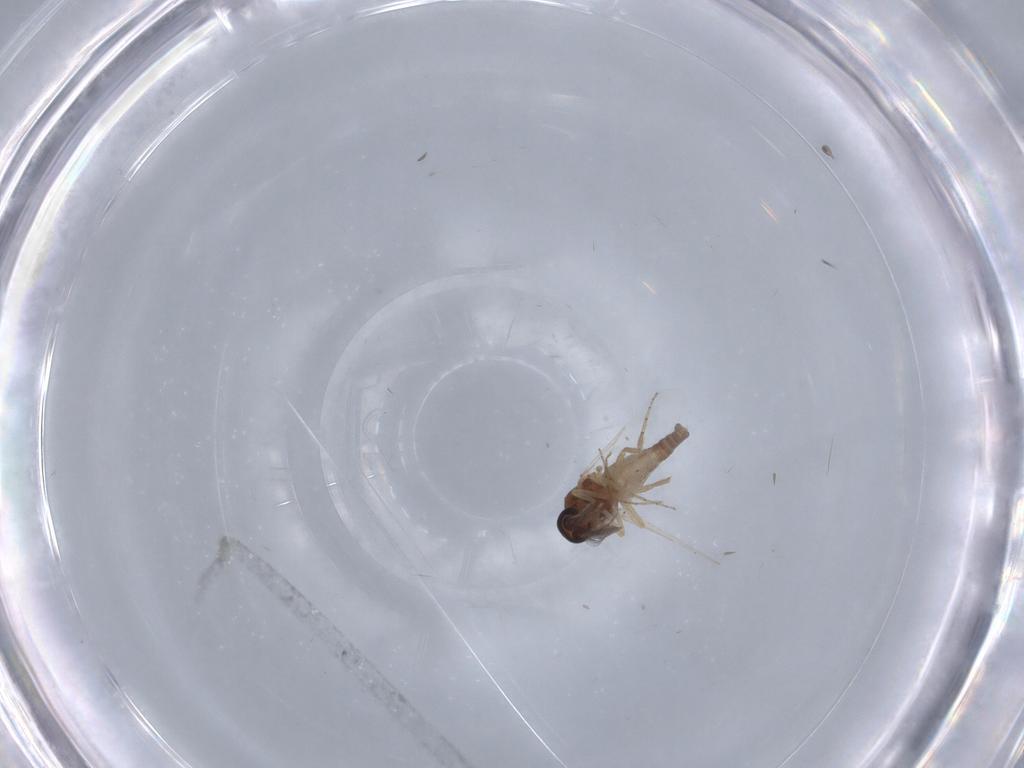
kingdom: Animalia
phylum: Arthropoda
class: Insecta
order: Diptera
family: Ceratopogonidae
